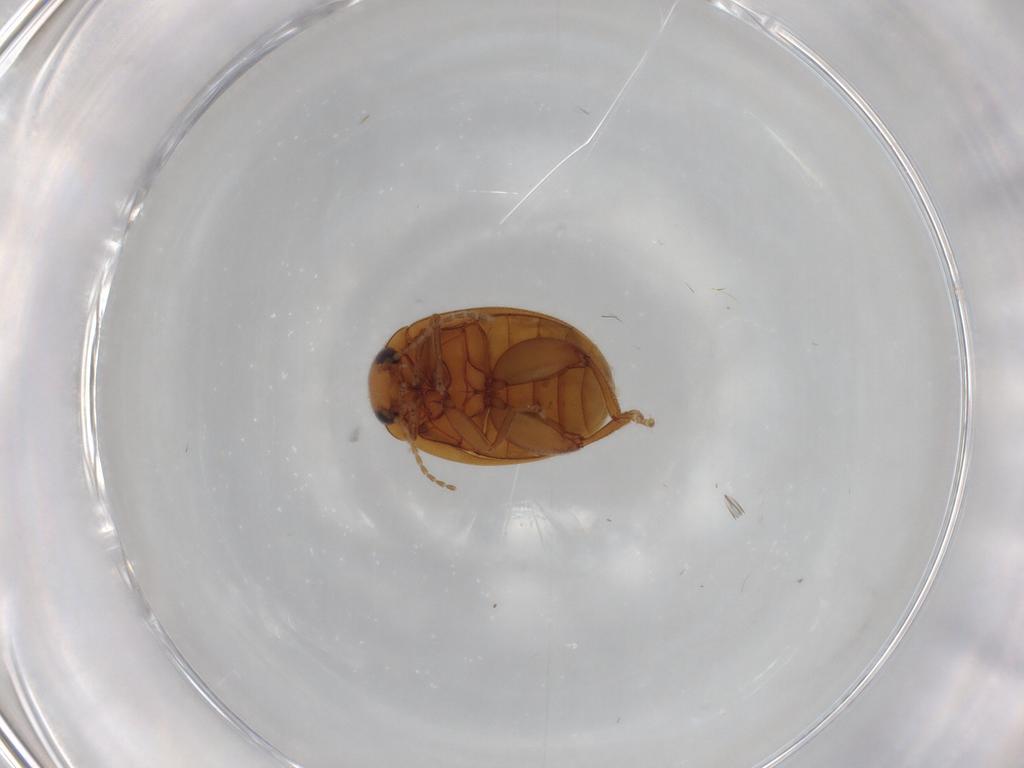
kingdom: Animalia
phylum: Arthropoda
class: Insecta
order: Coleoptera
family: Scirtidae
